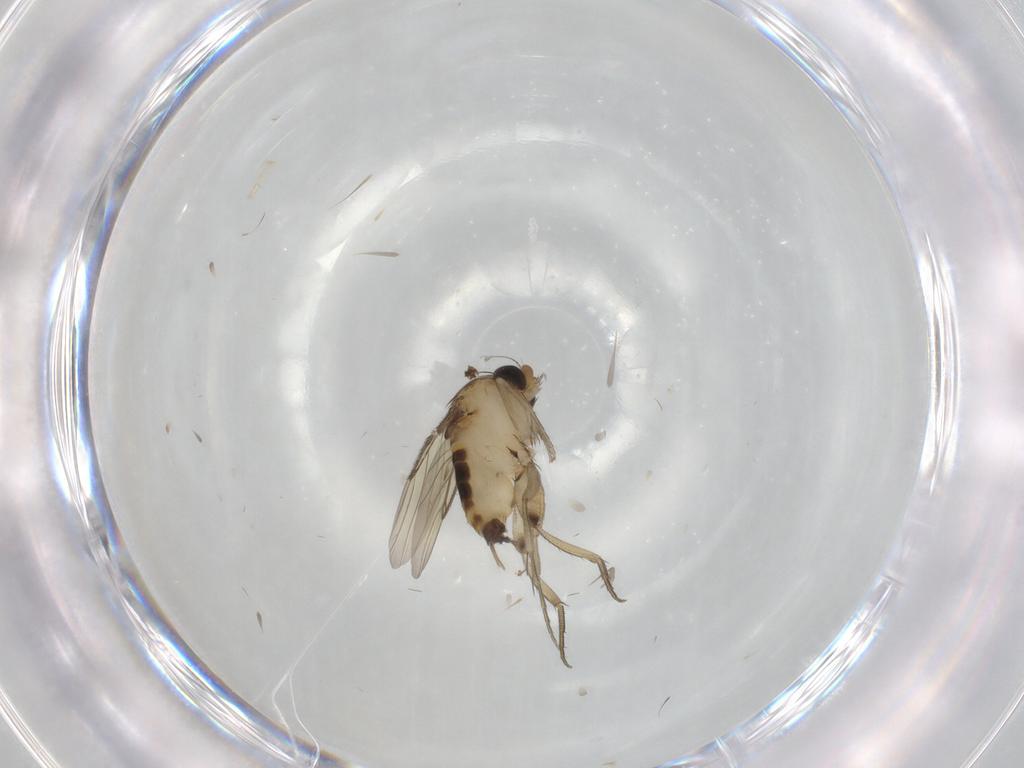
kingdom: Animalia
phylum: Arthropoda
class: Insecta
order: Diptera
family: Phoridae
